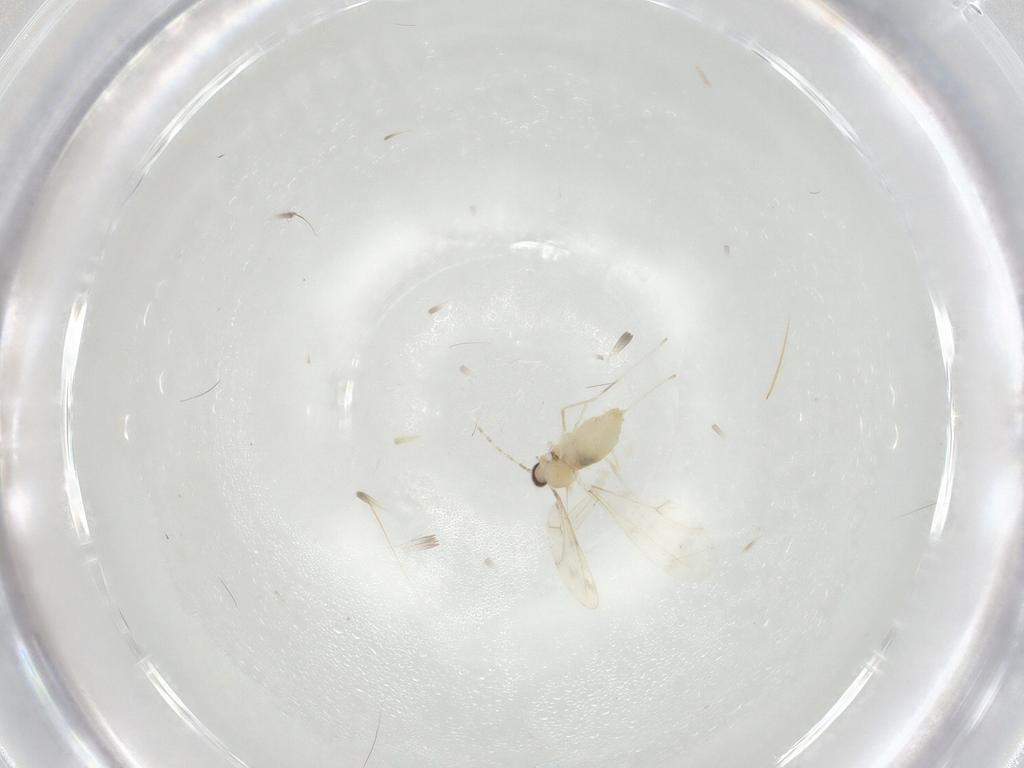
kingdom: Animalia
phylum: Arthropoda
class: Insecta
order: Diptera
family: Cecidomyiidae
